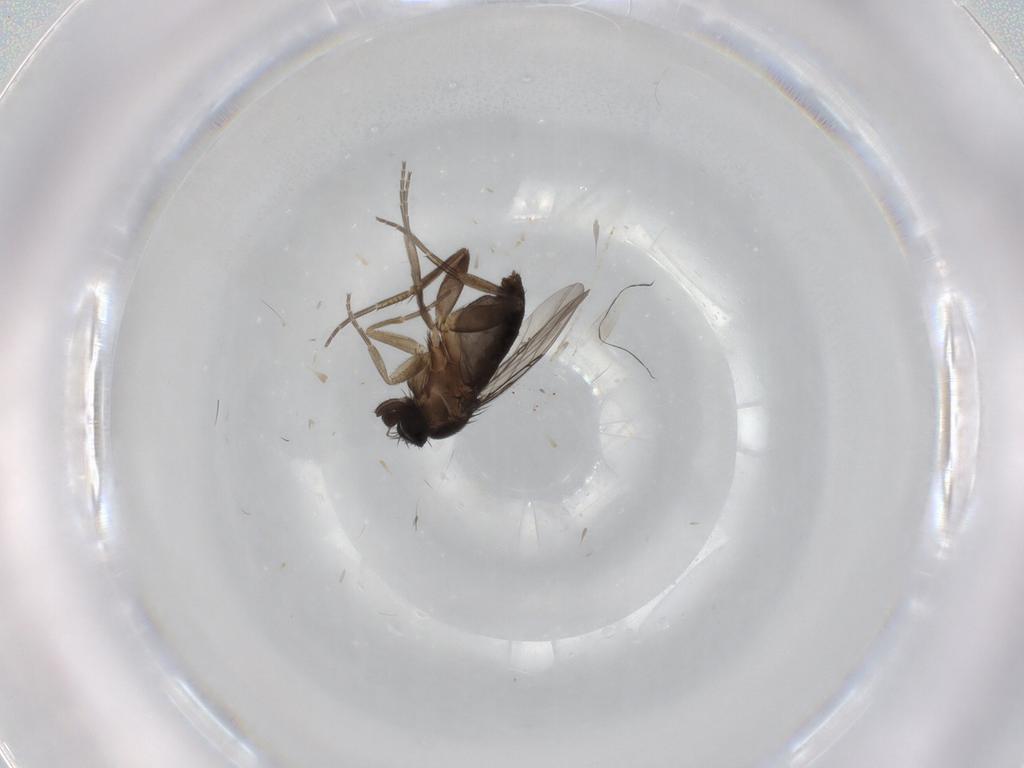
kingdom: Animalia
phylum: Arthropoda
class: Insecta
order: Diptera
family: Phoridae
